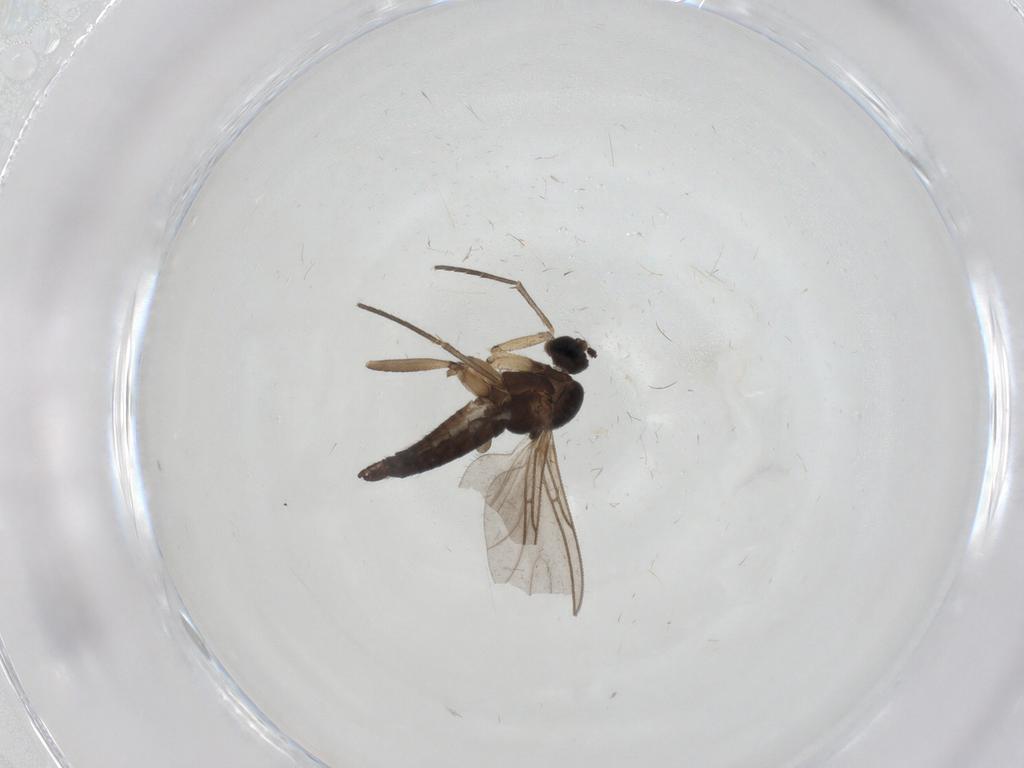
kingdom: Animalia
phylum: Arthropoda
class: Insecta
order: Diptera
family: Sciaridae
